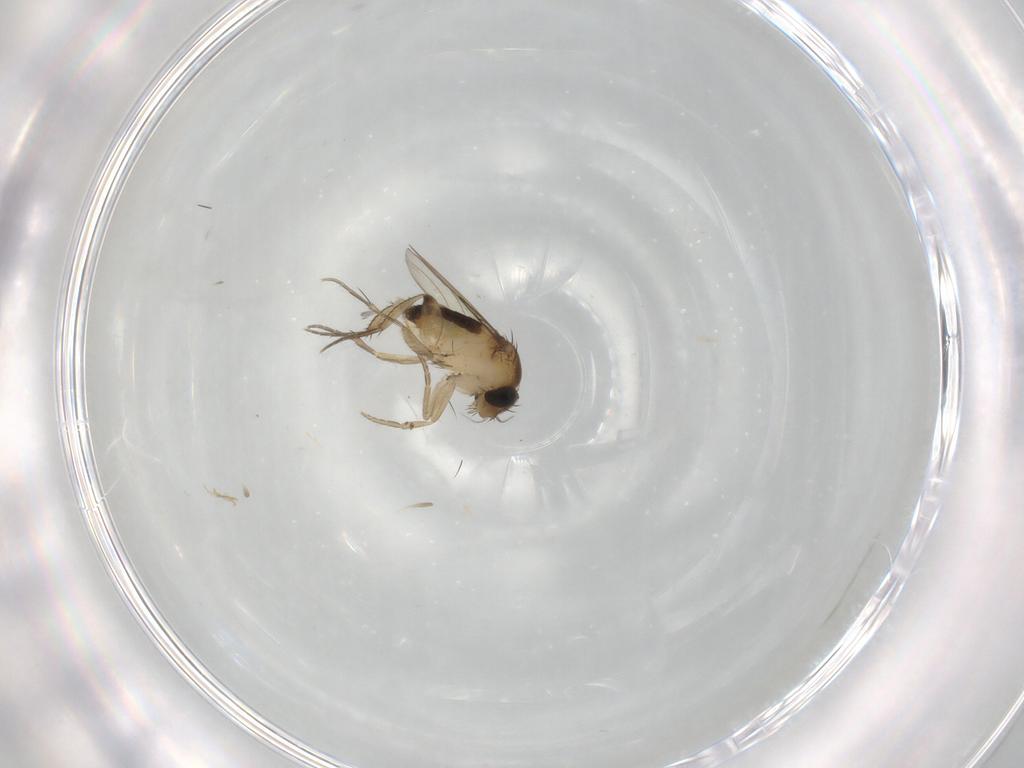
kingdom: Animalia
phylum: Arthropoda
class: Insecta
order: Diptera
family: Phoridae
